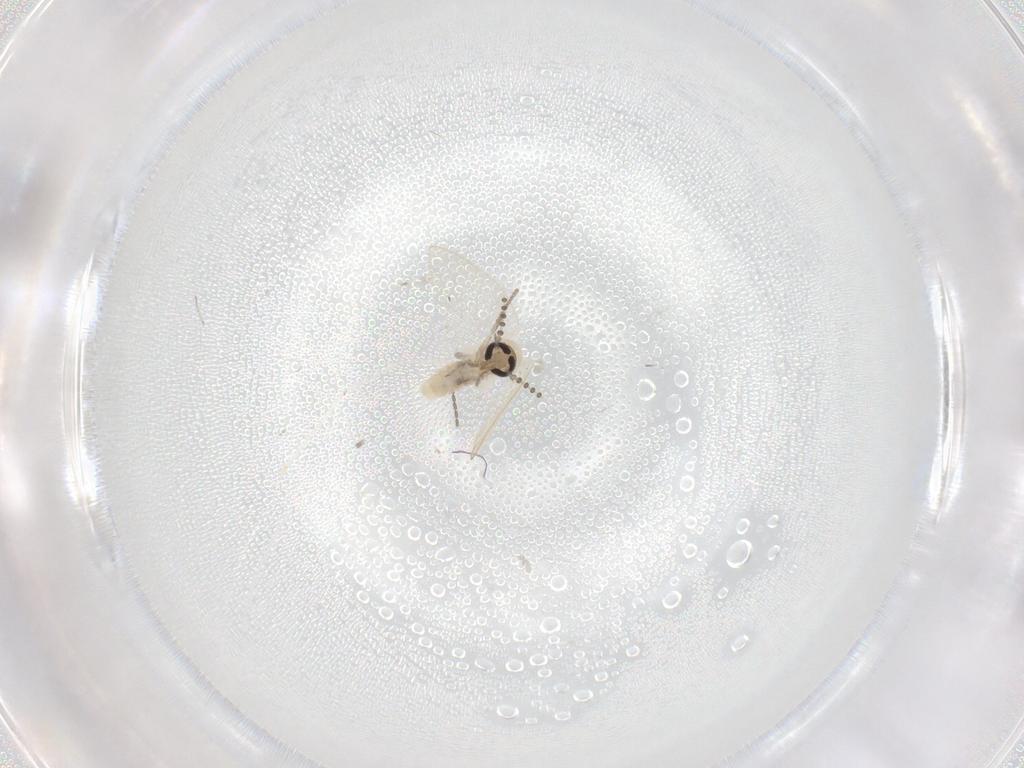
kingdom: Animalia
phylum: Arthropoda
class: Insecta
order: Diptera
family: Psychodidae
